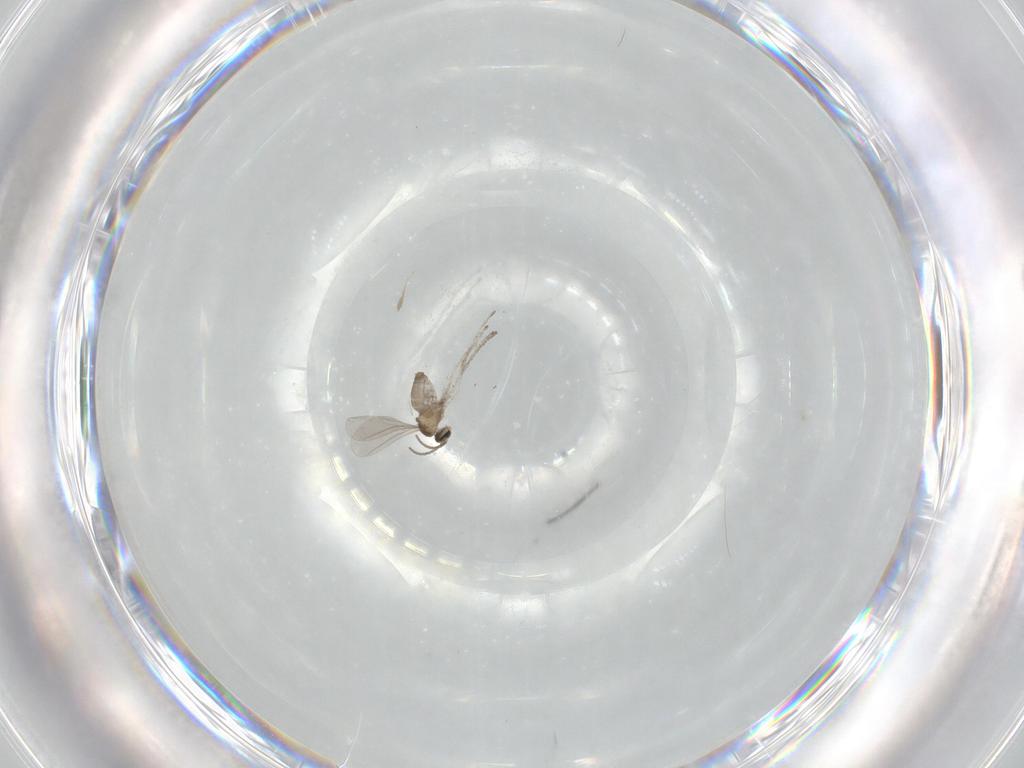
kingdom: Animalia
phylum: Arthropoda
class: Insecta
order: Diptera
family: Cecidomyiidae
